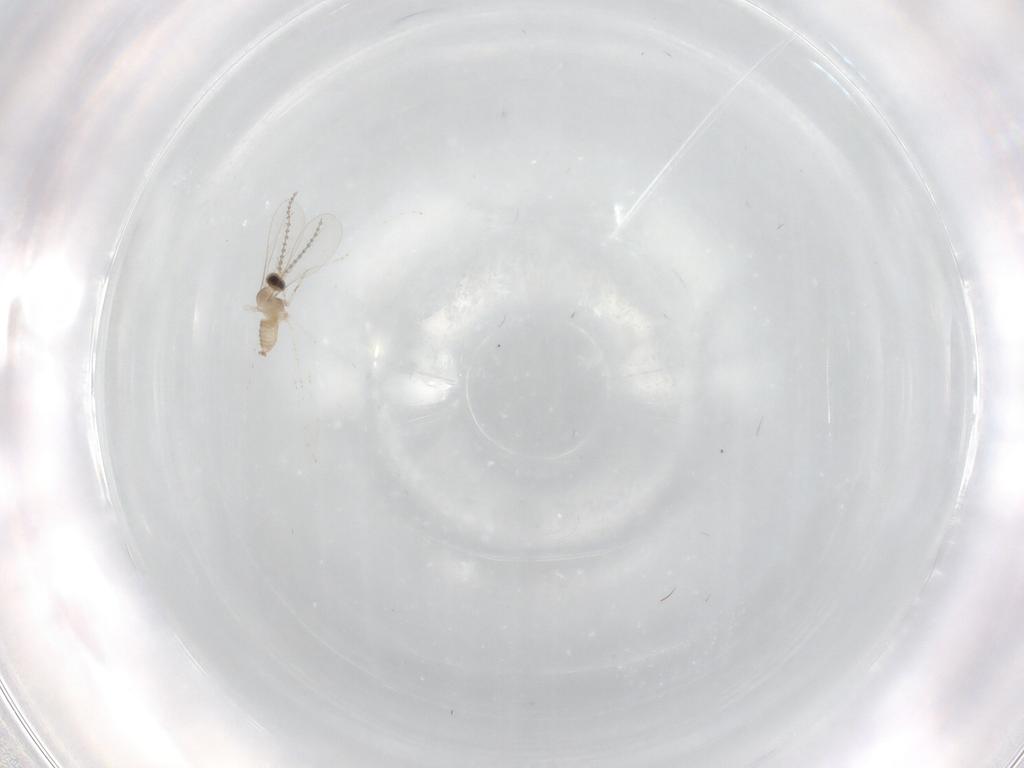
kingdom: Animalia
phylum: Arthropoda
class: Insecta
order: Diptera
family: Cecidomyiidae
